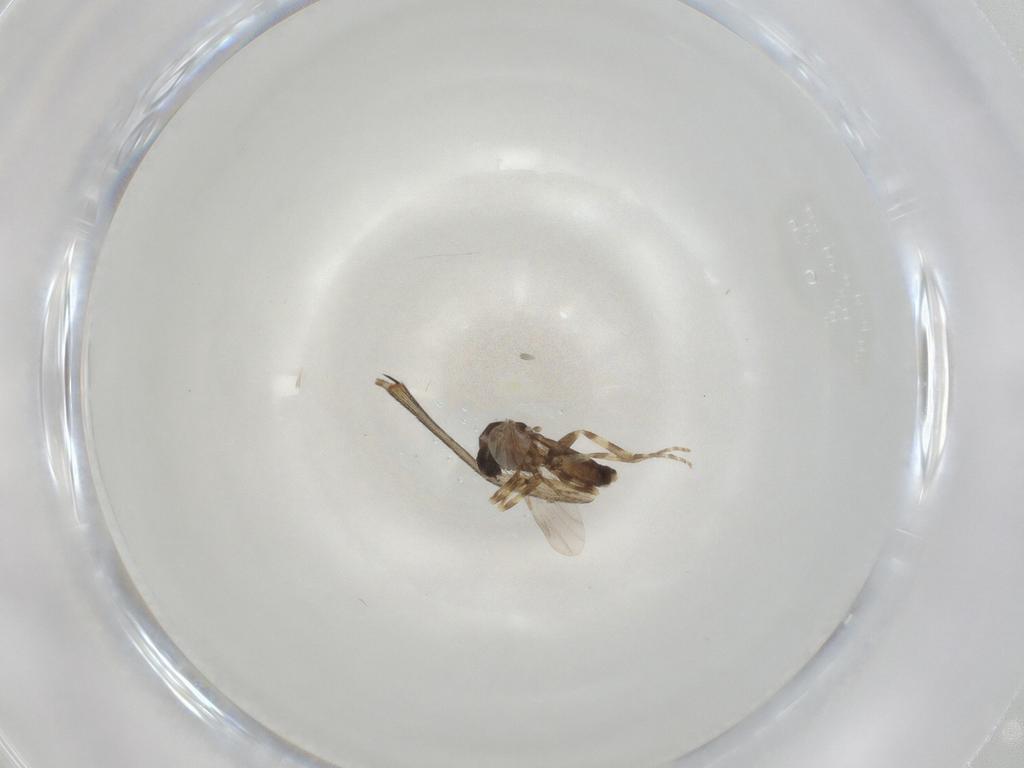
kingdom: Animalia
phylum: Arthropoda
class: Insecta
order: Diptera
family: Keroplatidae
